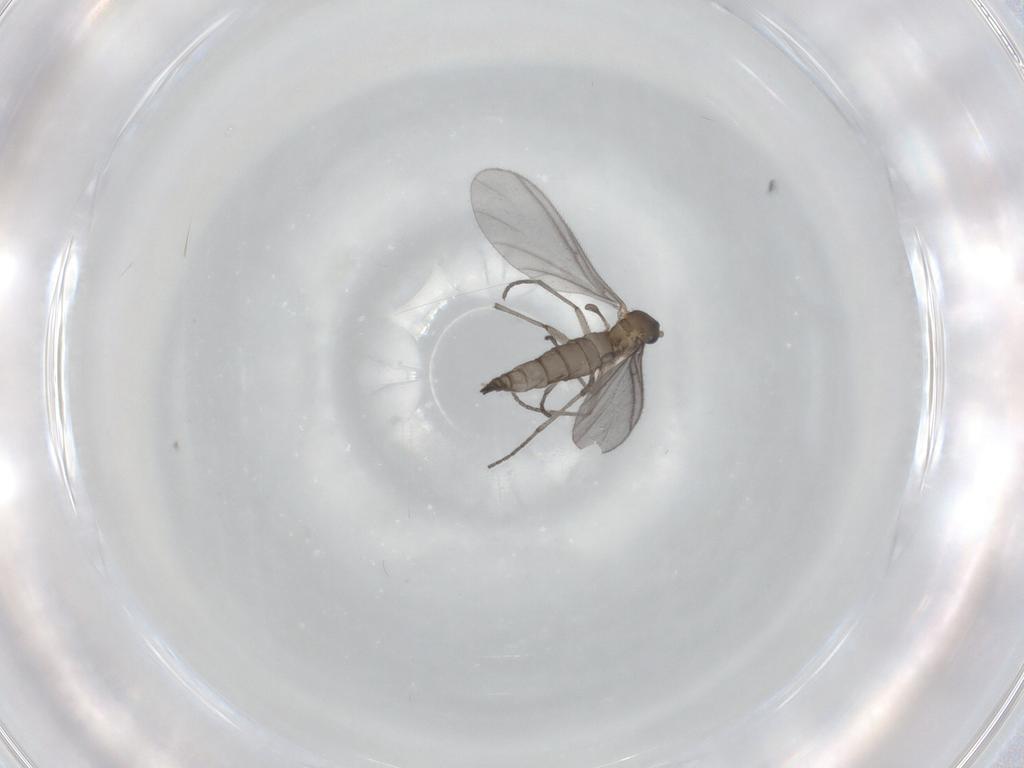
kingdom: Animalia
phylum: Arthropoda
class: Insecta
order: Diptera
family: Sciaridae
